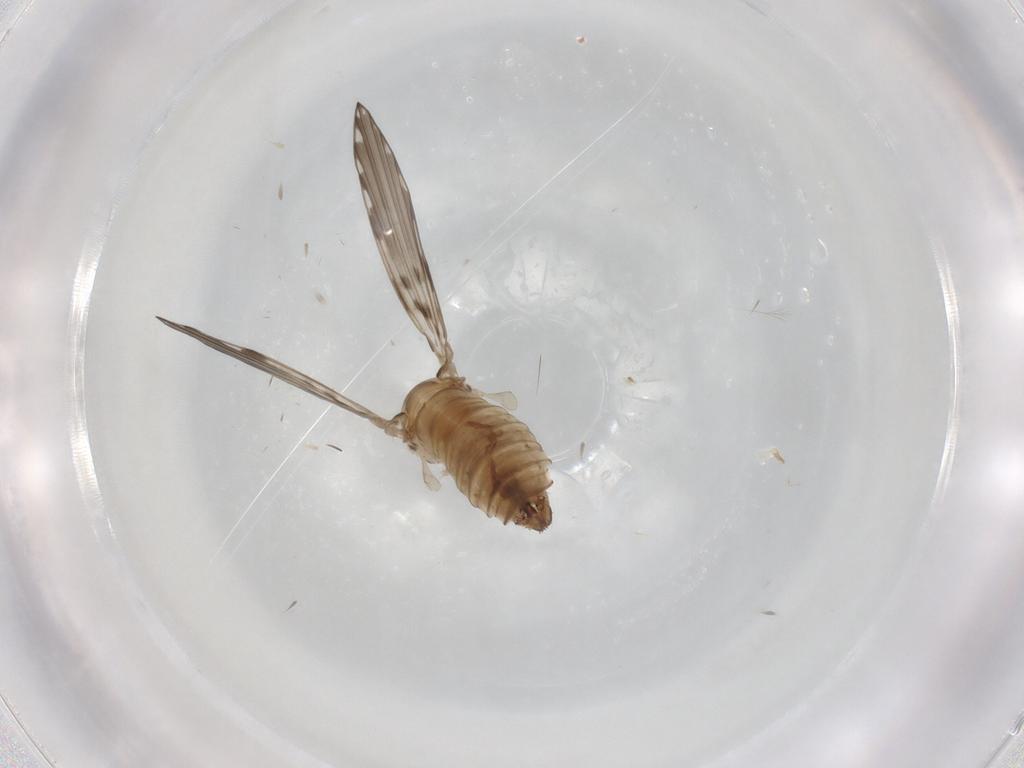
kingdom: Animalia
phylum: Arthropoda
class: Insecta
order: Diptera
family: Psychodidae
